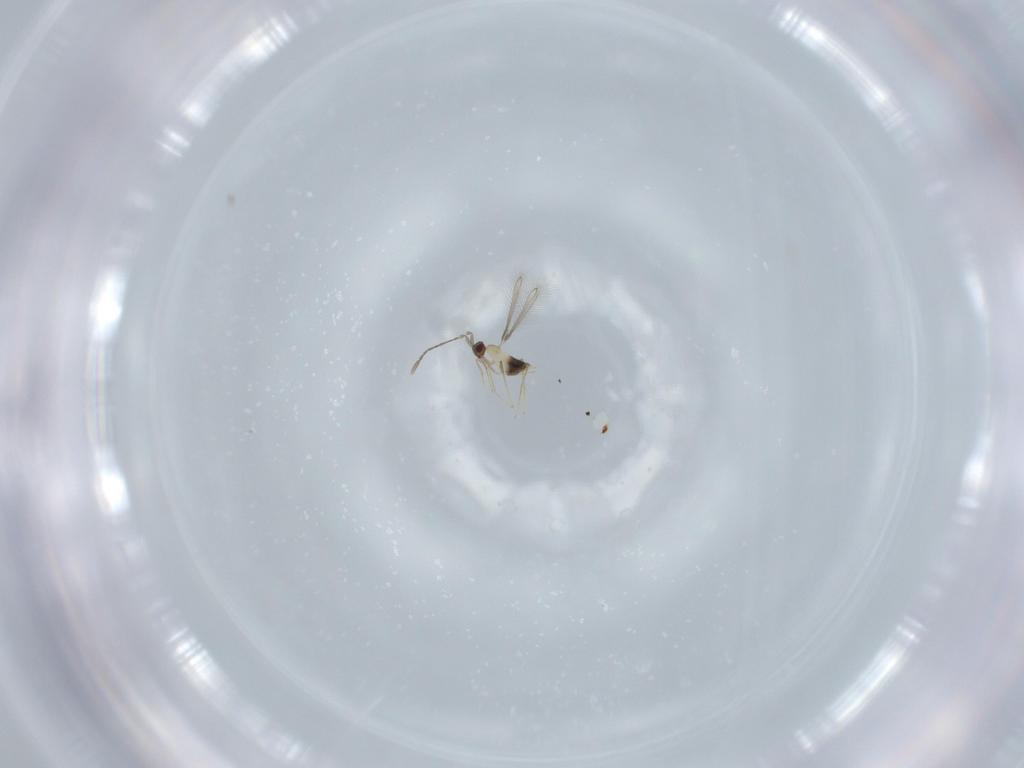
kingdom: Animalia
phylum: Arthropoda
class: Insecta
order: Hymenoptera
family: Mymaridae
